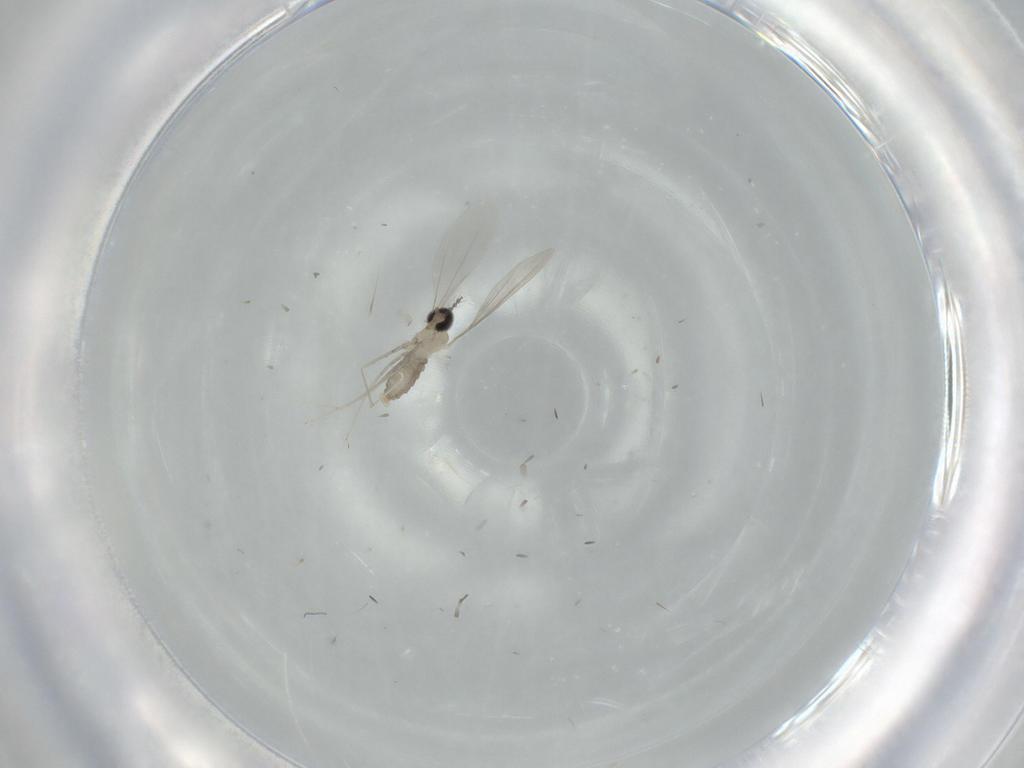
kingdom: Animalia
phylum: Arthropoda
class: Insecta
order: Diptera
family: Cecidomyiidae
